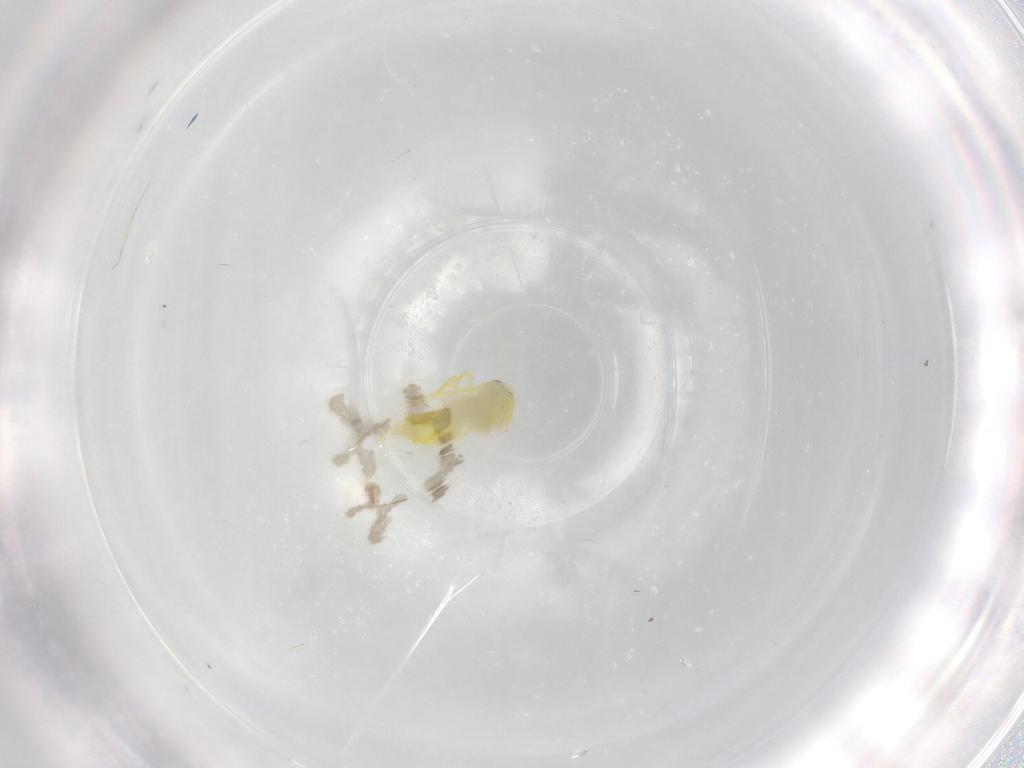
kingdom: Animalia
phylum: Arthropoda
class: Insecta
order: Hemiptera
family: Aleyrodidae
